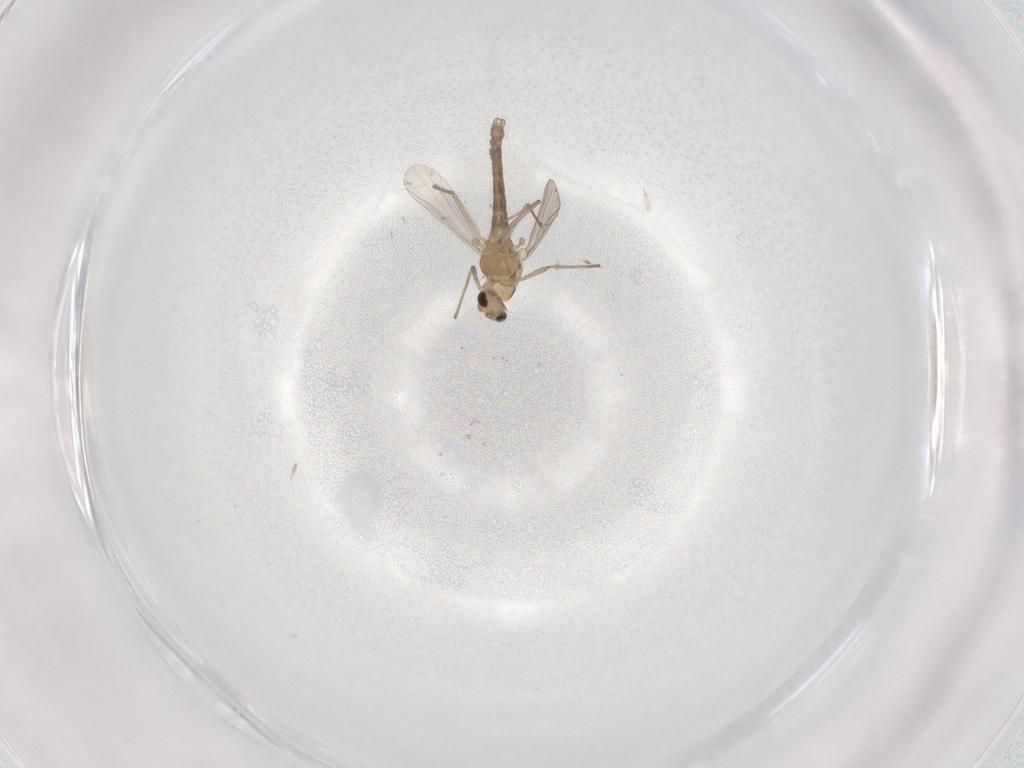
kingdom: Animalia
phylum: Arthropoda
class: Insecta
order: Diptera
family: Chironomidae
